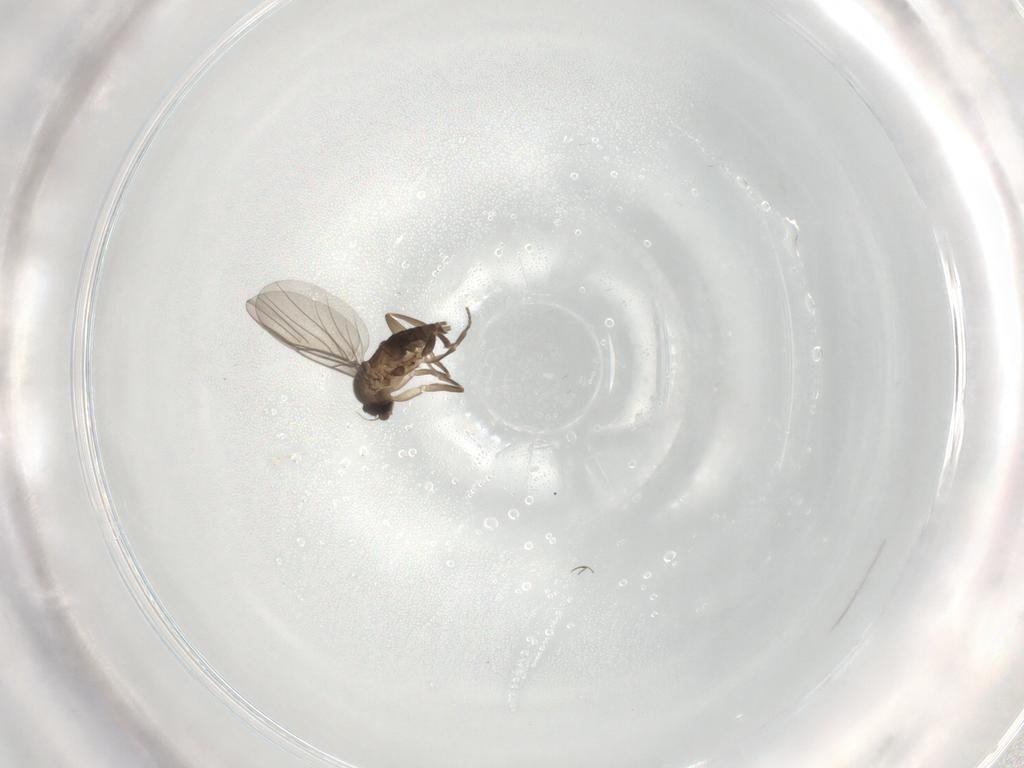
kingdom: Animalia
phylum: Arthropoda
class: Insecta
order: Diptera
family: Phoridae
